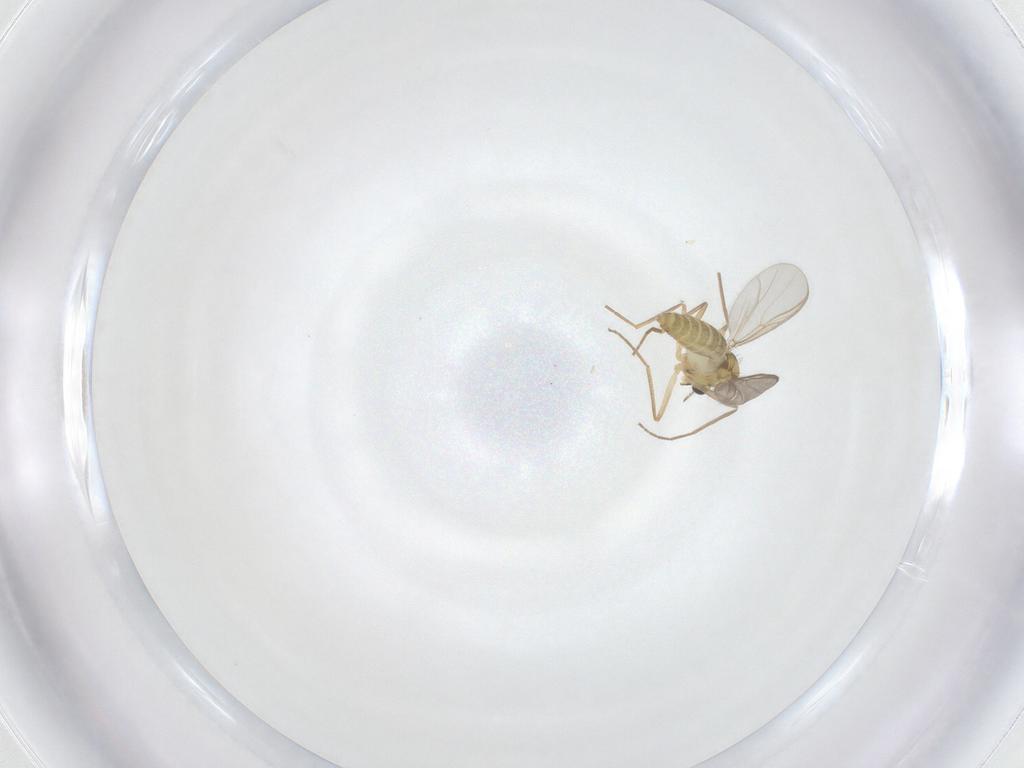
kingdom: Animalia
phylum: Arthropoda
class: Insecta
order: Diptera
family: Chironomidae
